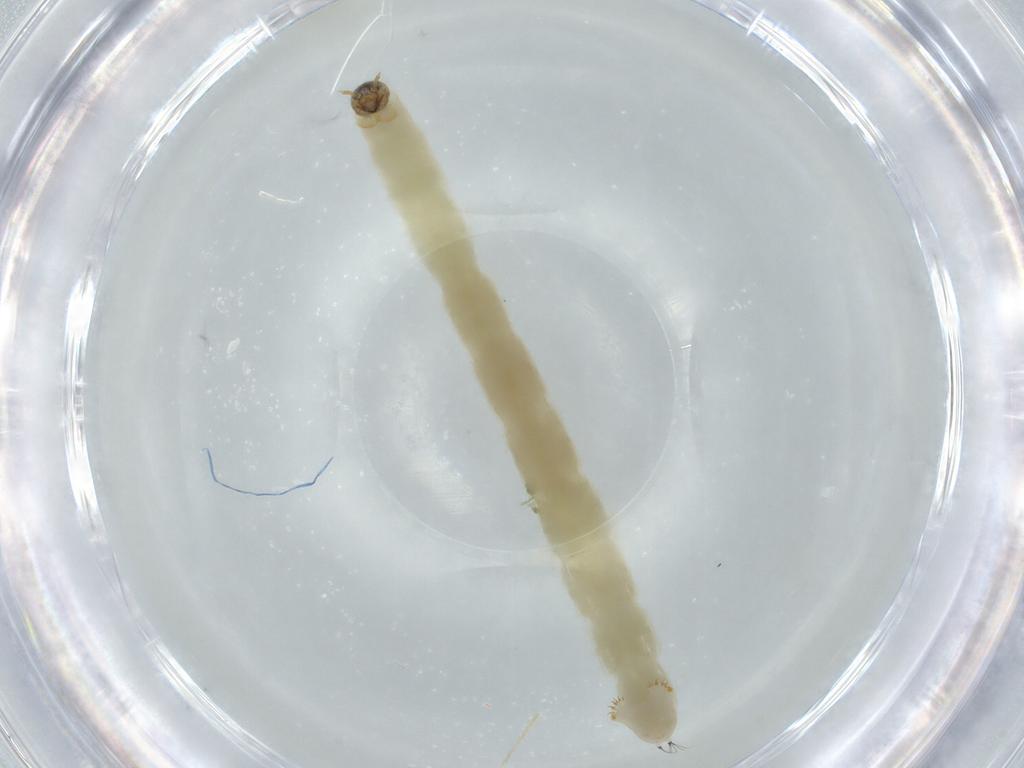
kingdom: Animalia
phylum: Arthropoda
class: Insecta
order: Diptera
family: Chironomidae
